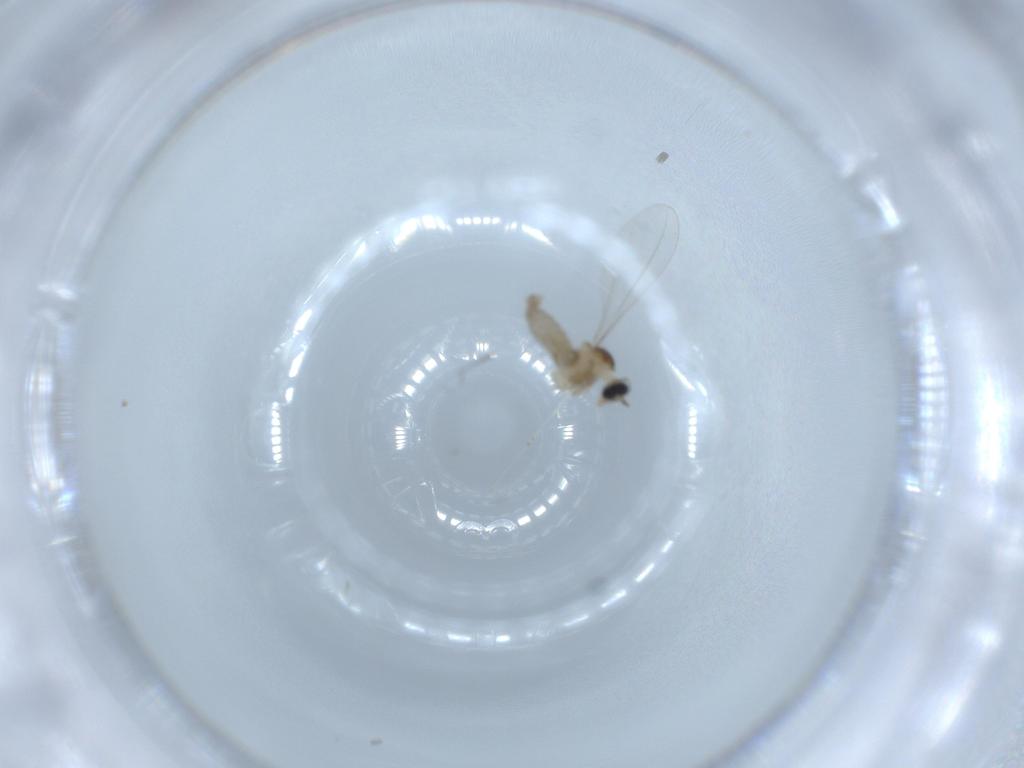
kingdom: Animalia
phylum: Arthropoda
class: Insecta
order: Diptera
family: Cecidomyiidae
